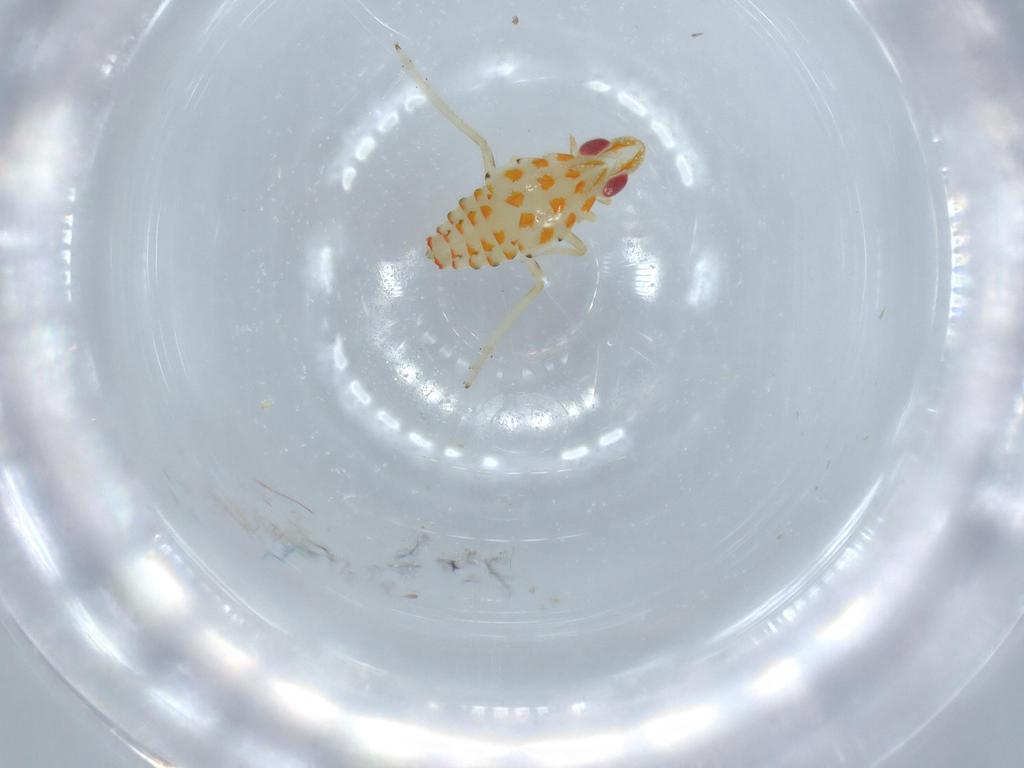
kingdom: Animalia
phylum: Arthropoda
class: Insecta
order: Hemiptera
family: Tropiduchidae
